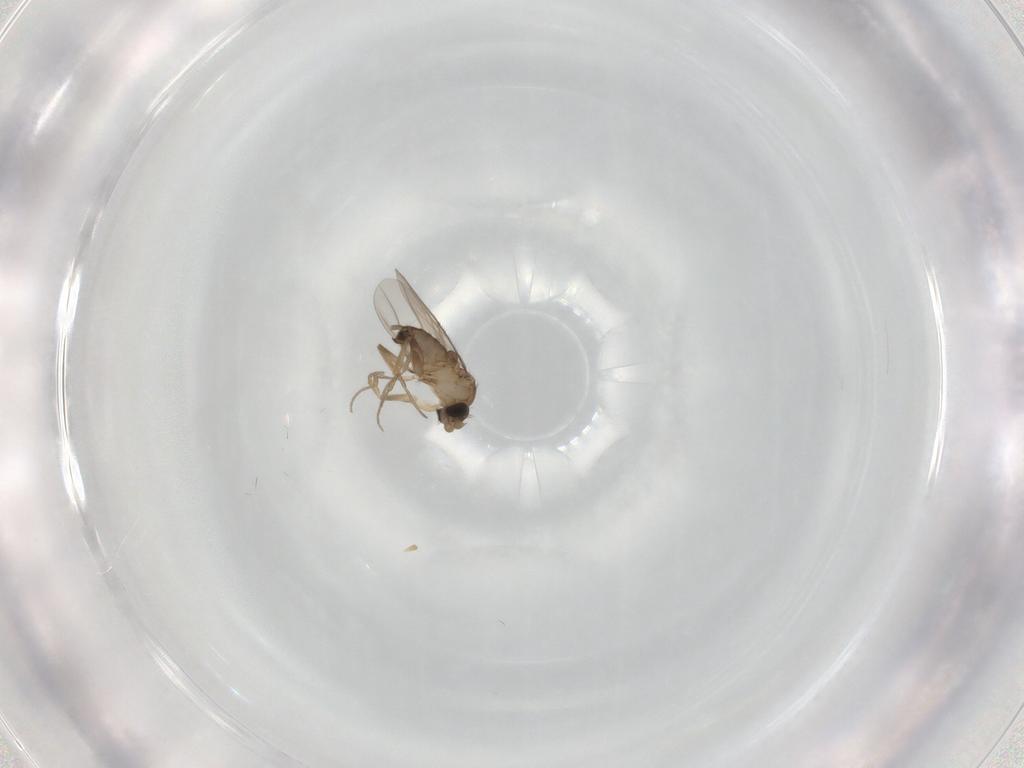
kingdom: Animalia
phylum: Arthropoda
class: Insecta
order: Diptera
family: Phoridae
